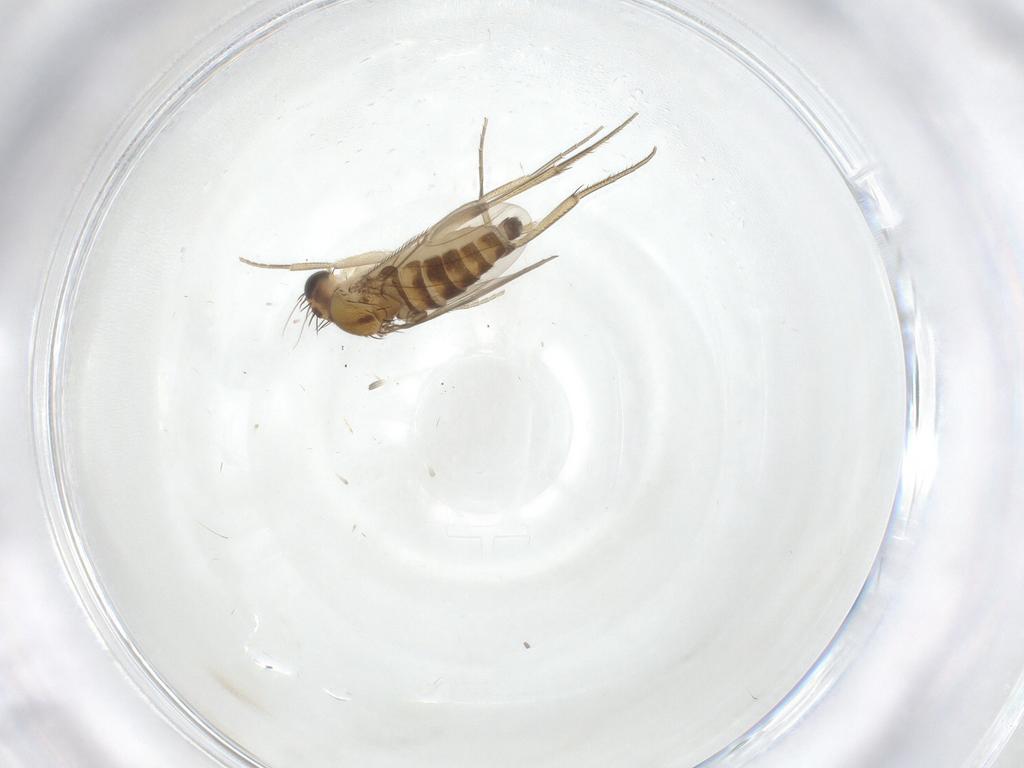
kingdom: Animalia
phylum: Arthropoda
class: Insecta
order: Diptera
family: Phoridae
